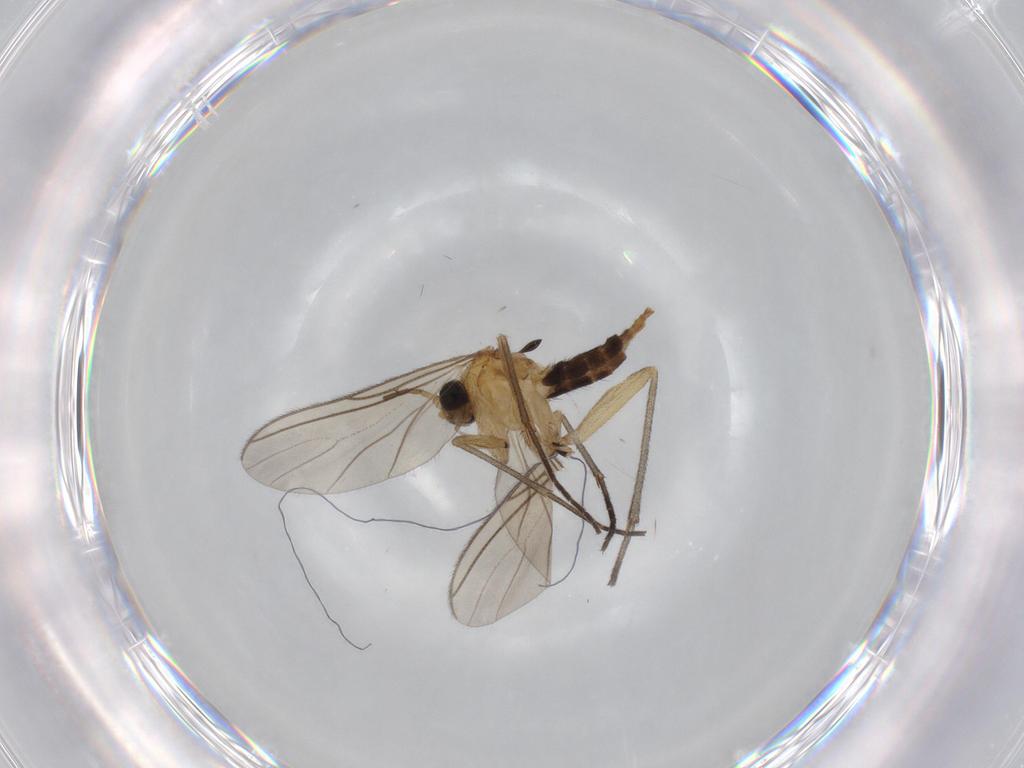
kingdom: Animalia
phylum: Arthropoda
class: Insecta
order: Diptera
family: Sciaridae
